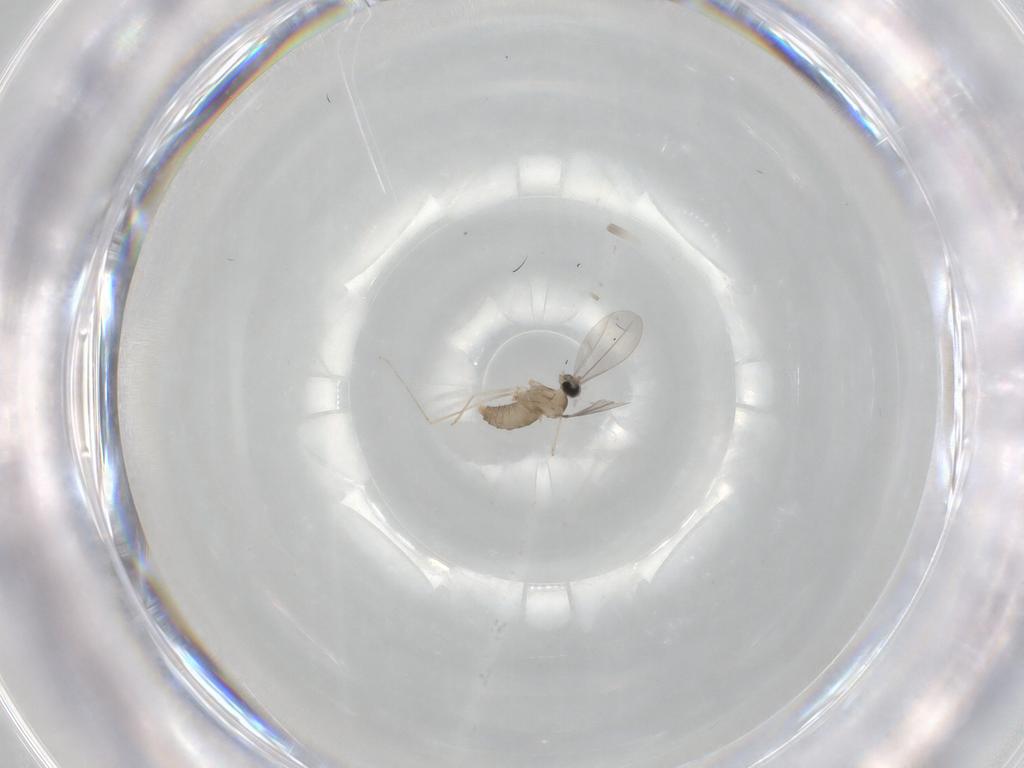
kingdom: Animalia
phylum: Arthropoda
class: Insecta
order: Diptera
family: Cecidomyiidae
